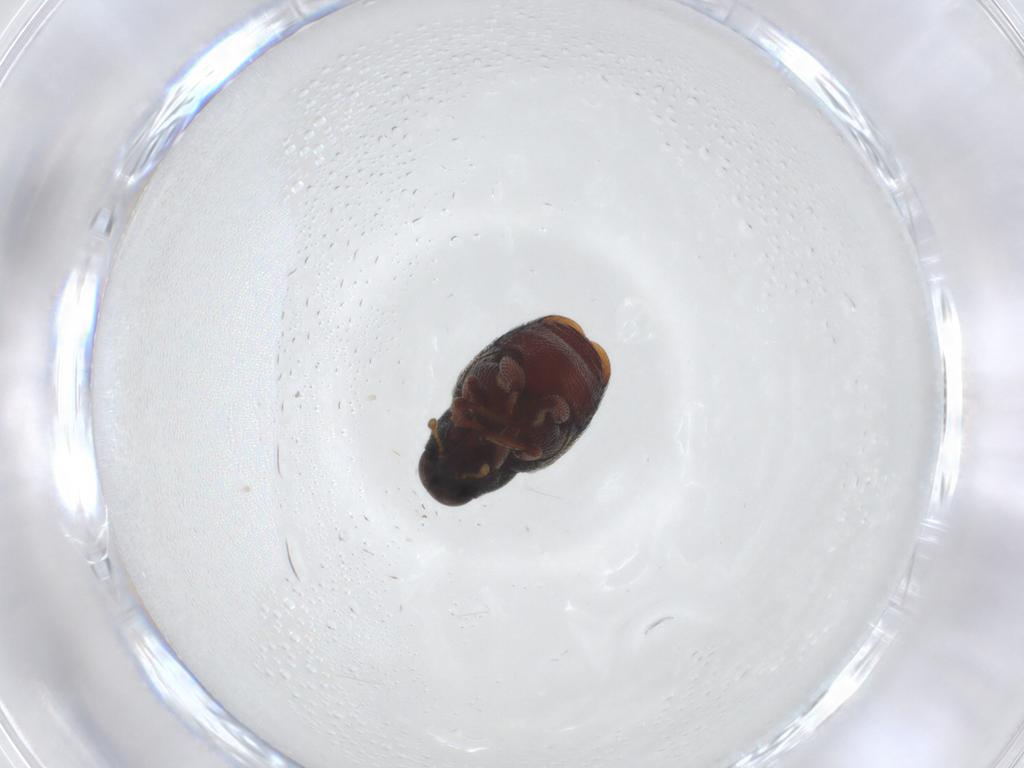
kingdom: Animalia
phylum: Arthropoda
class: Insecta
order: Coleoptera
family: Curculionidae
